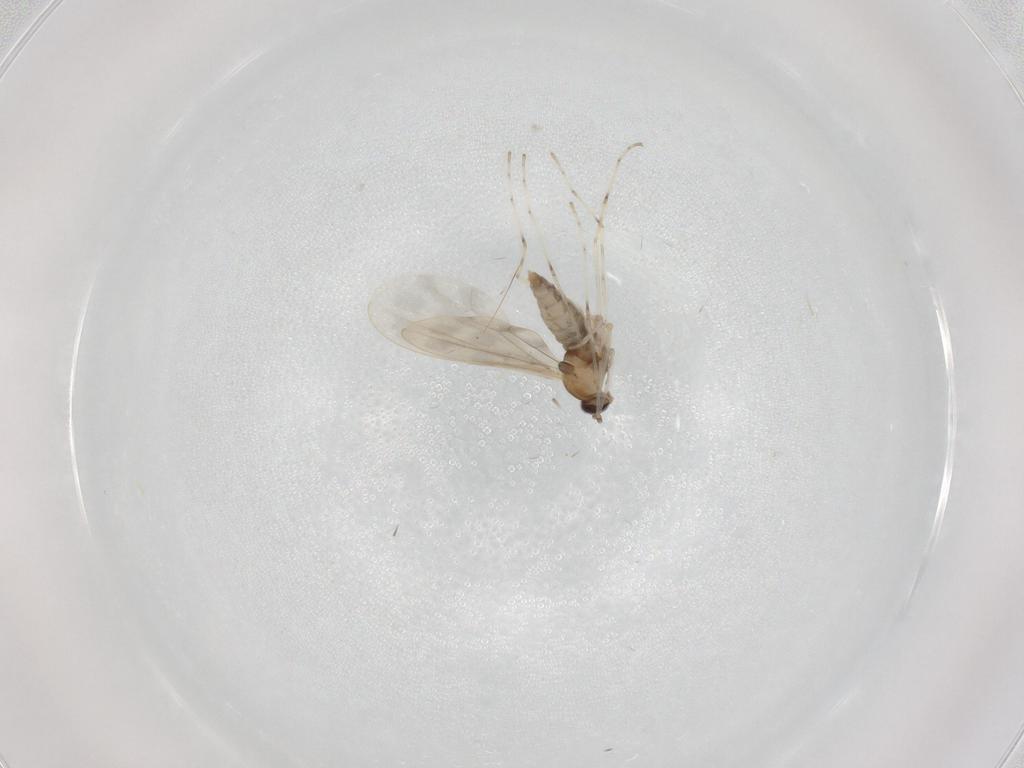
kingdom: Animalia
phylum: Arthropoda
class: Insecta
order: Diptera
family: Cecidomyiidae
